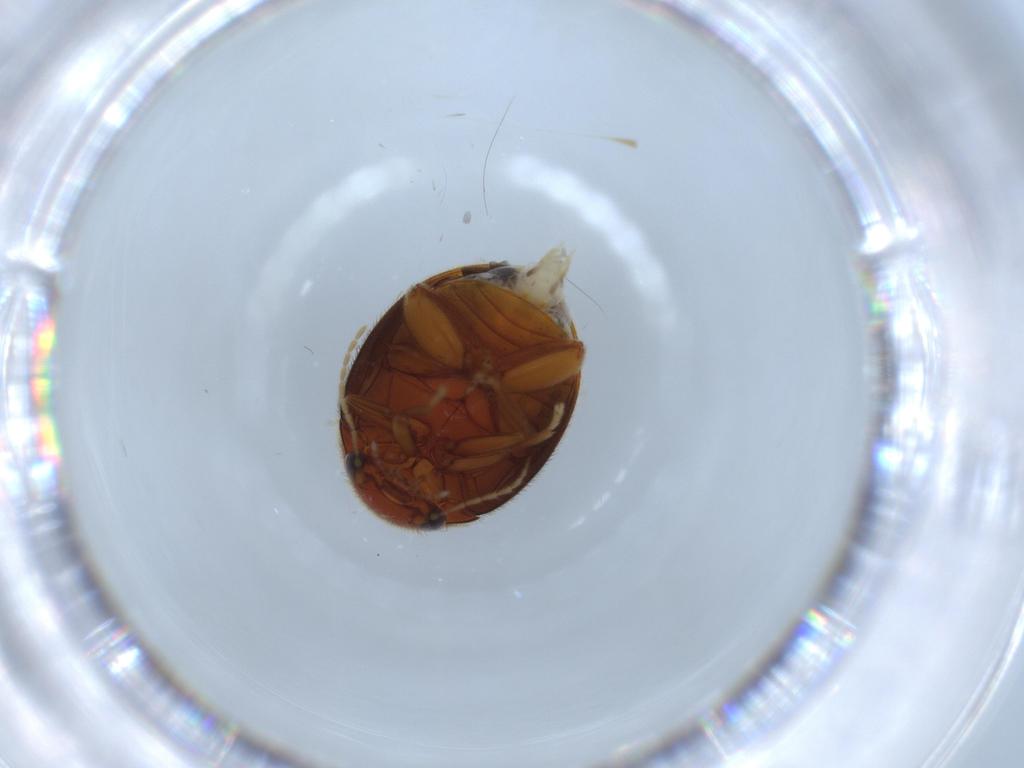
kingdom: Animalia
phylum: Arthropoda
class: Insecta
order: Coleoptera
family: Scirtidae
